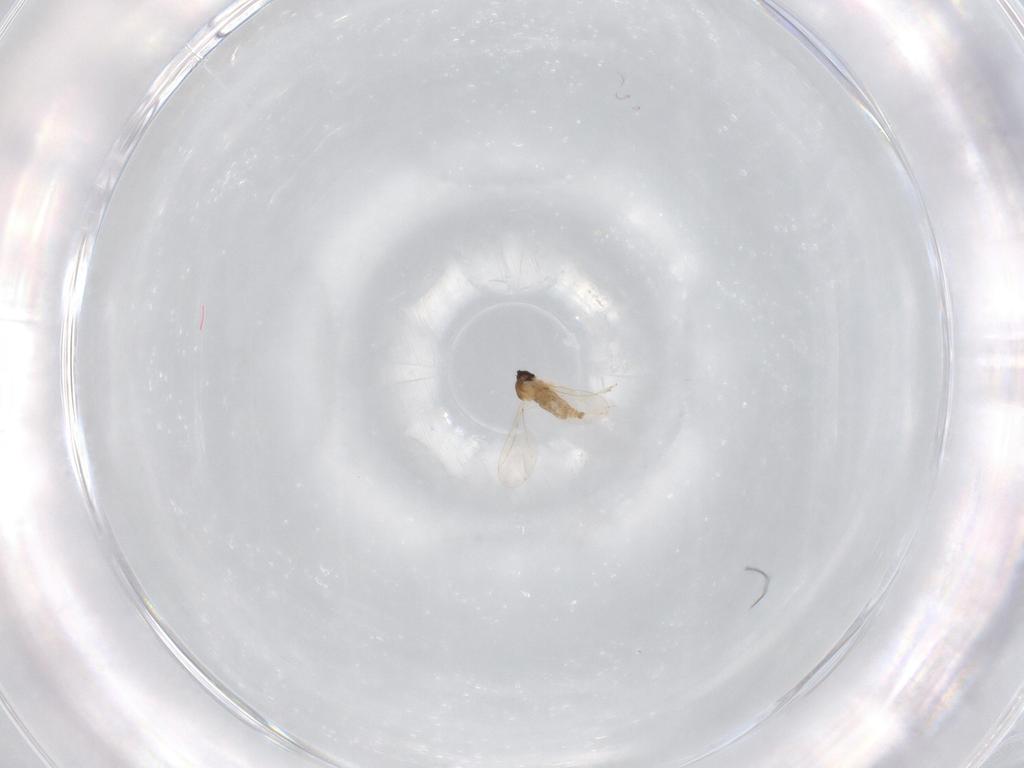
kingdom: Animalia
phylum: Arthropoda
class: Insecta
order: Diptera
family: Cecidomyiidae
